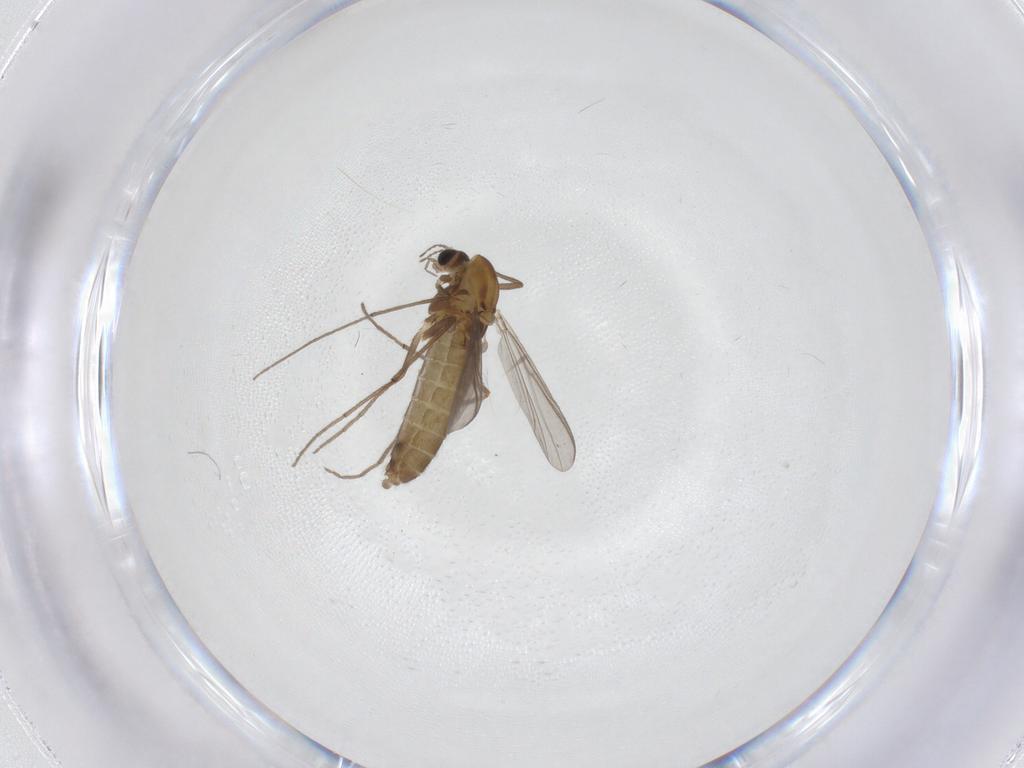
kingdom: Animalia
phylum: Arthropoda
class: Insecta
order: Diptera
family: Chironomidae
